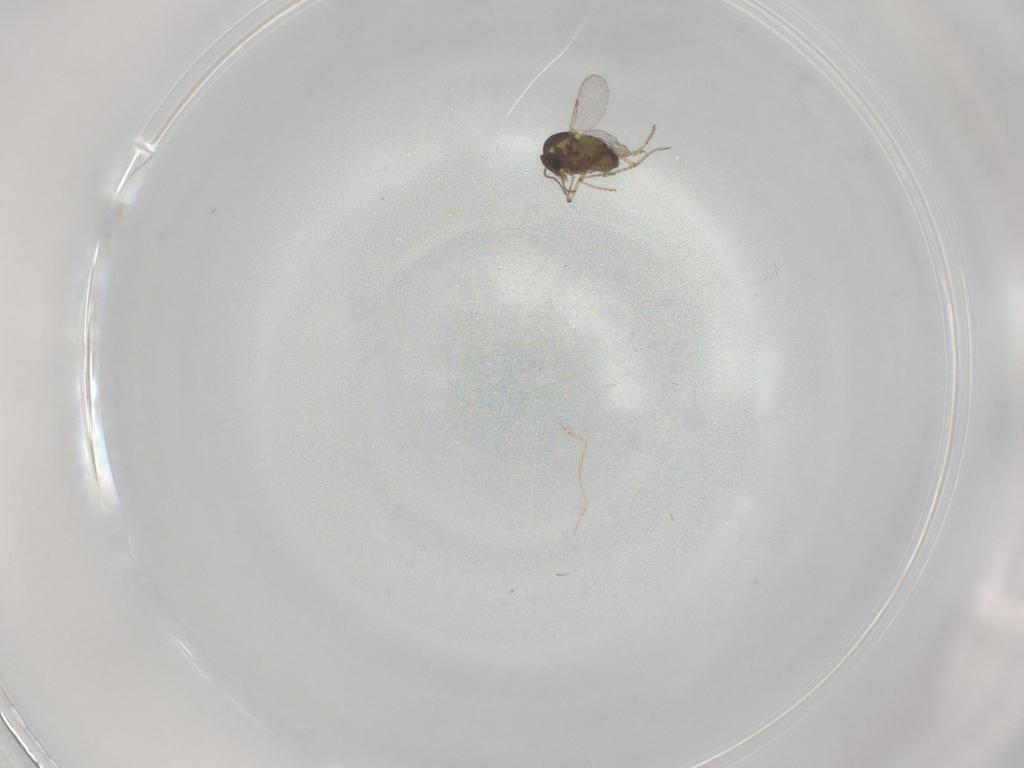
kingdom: Animalia
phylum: Arthropoda
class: Insecta
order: Diptera
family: Ceratopogonidae
